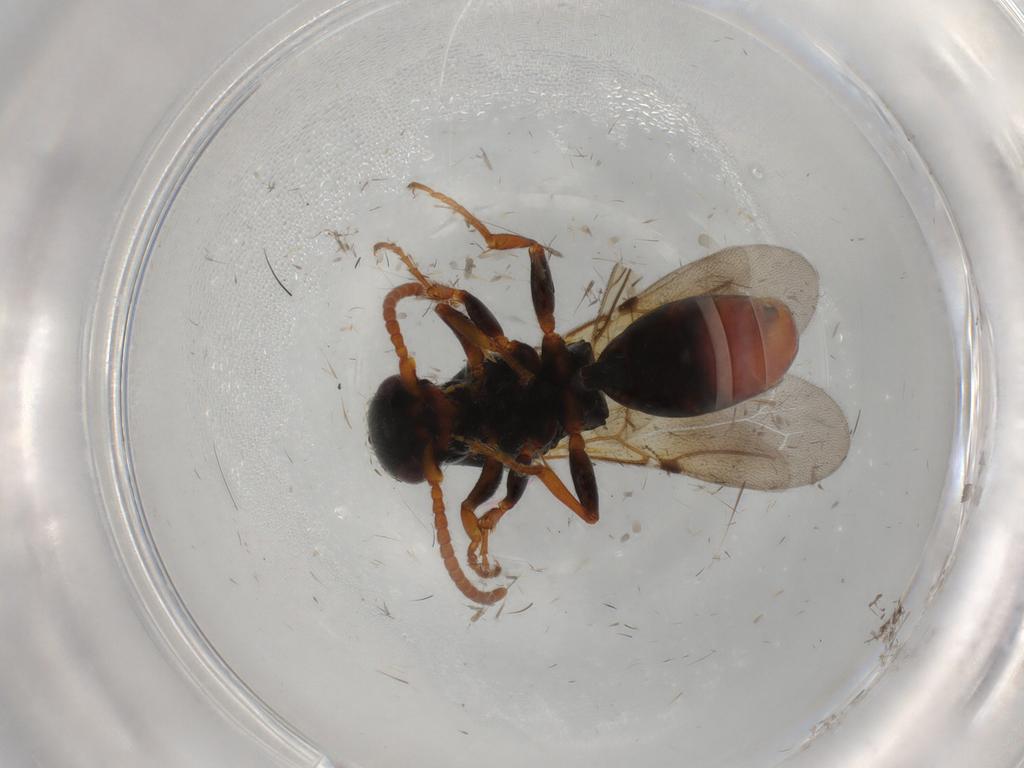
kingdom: Animalia
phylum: Arthropoda
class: Insecta
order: Hymenoptera
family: Bethylidae
